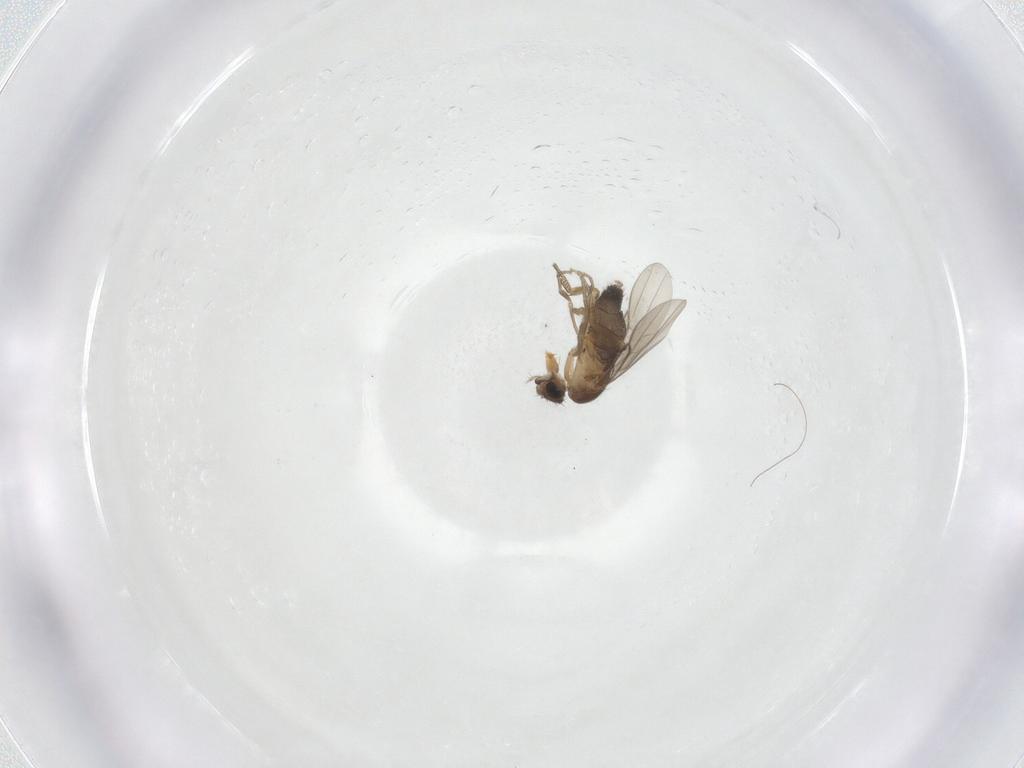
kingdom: Animalia
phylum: Arthropoda
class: Insecta
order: Diptera
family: Phoridae
